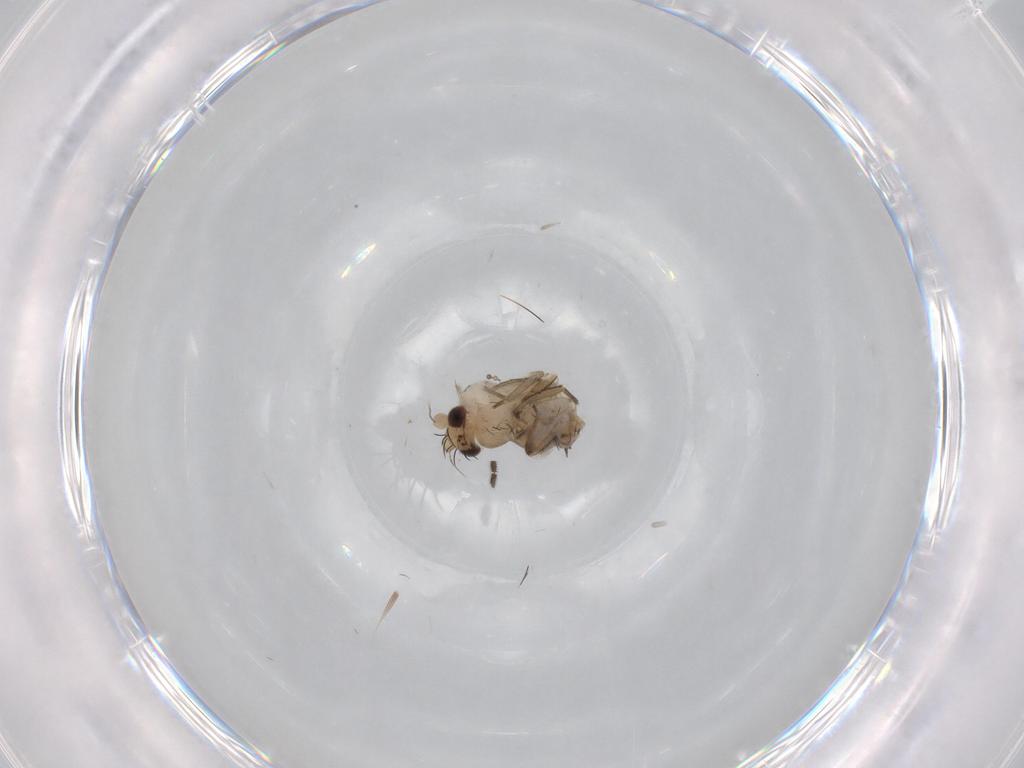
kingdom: Animalia
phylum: Arthropoda
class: Insecta
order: Diptera
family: Phoridae
